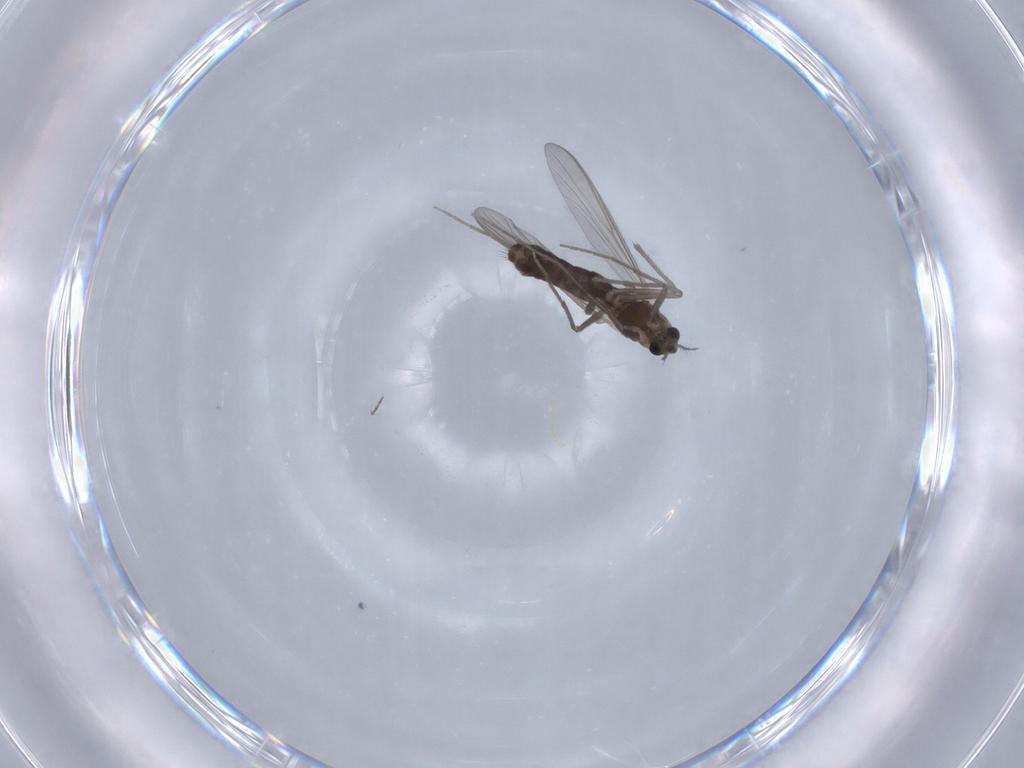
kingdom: Animalia
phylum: Arthropoda
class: Insecta
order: Diptera
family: Chironomidae
